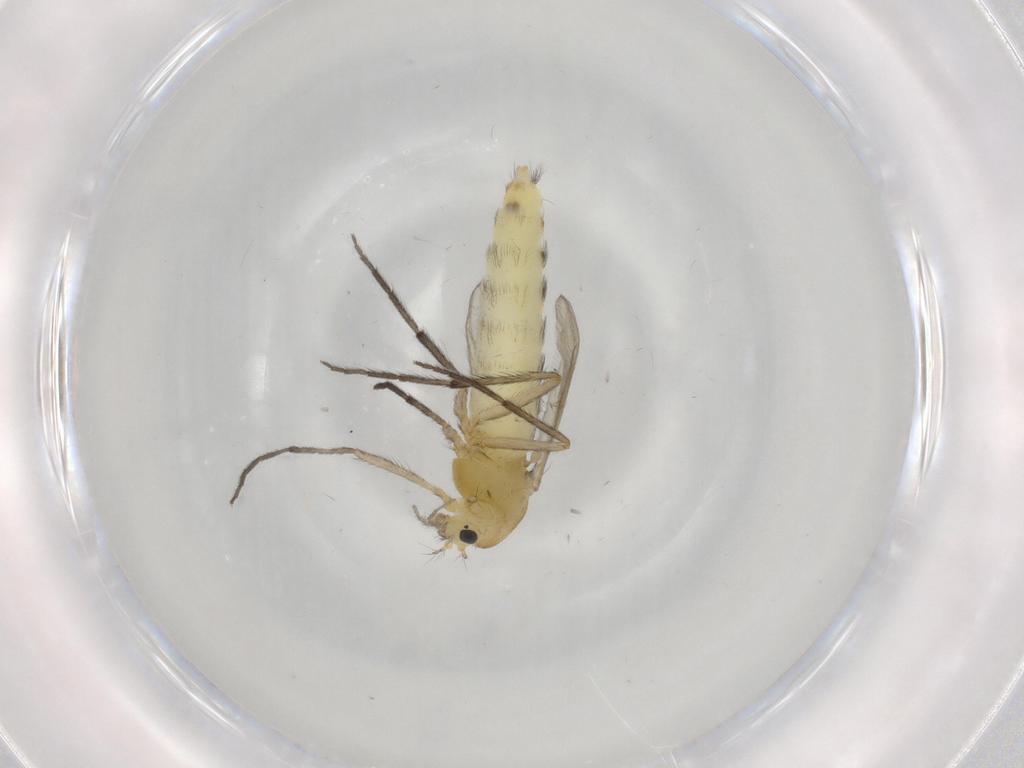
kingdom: Animalia
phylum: Arthropoda
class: Insecta
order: Diptera
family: Chironomidae
